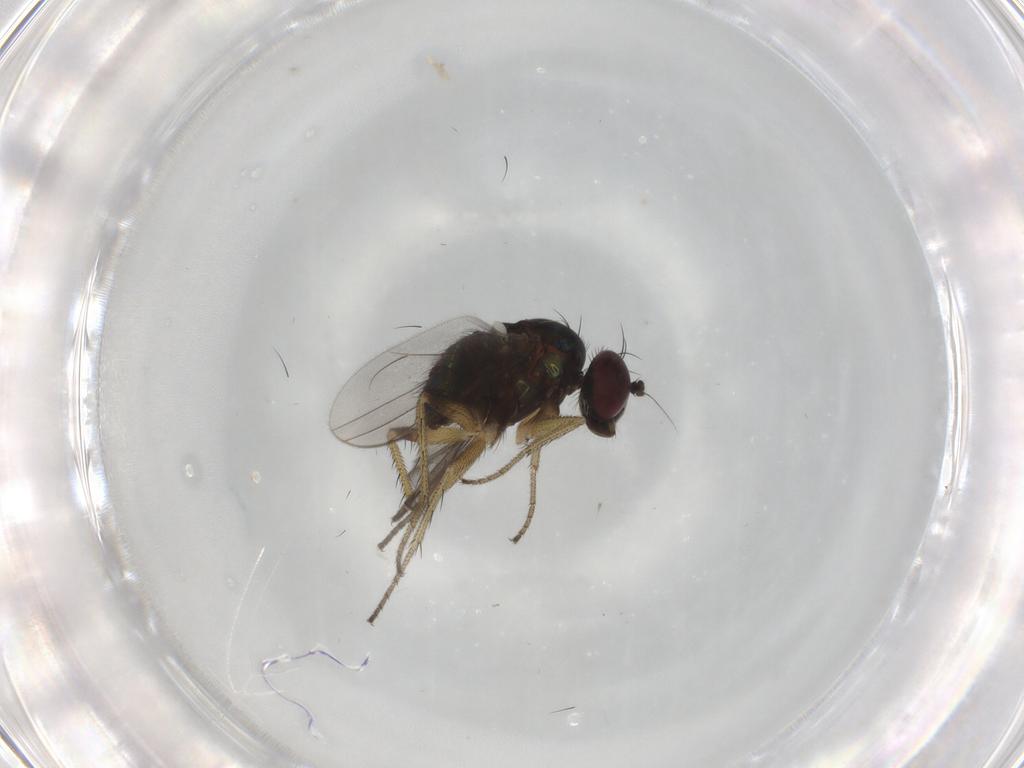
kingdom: Animalia
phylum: Arthropoda
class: Insecta
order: Diptera
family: Dolichopodidae
